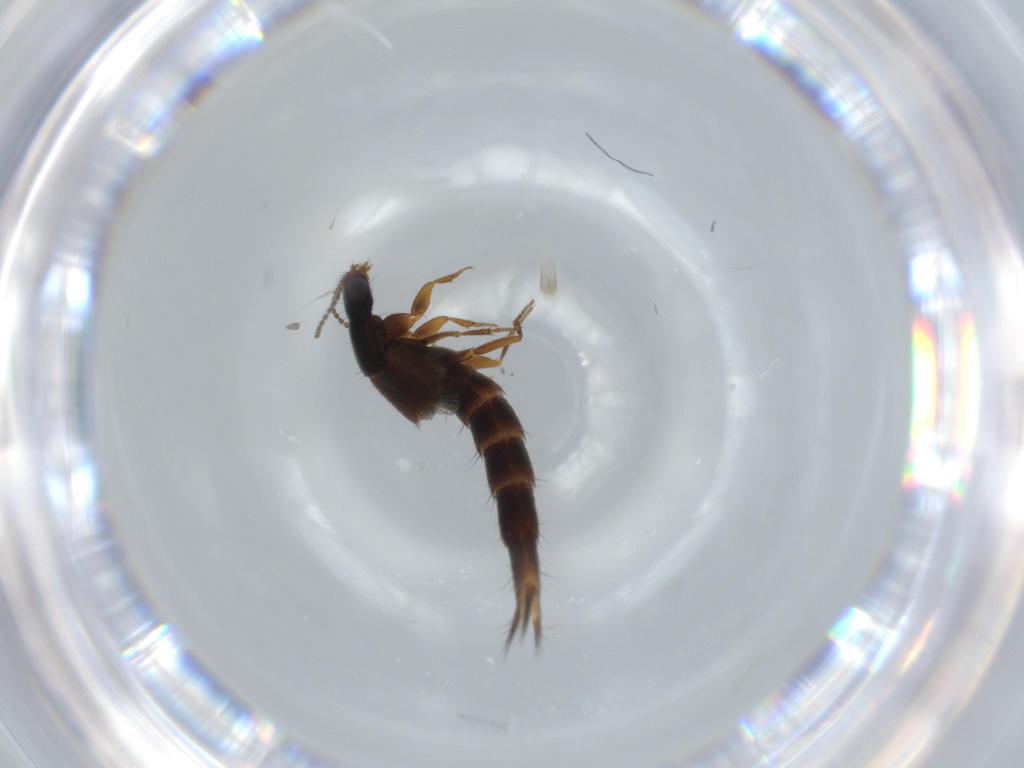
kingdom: Animalia
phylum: Arthropoda
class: Insecta
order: Coleoptera
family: Staphylinidae
